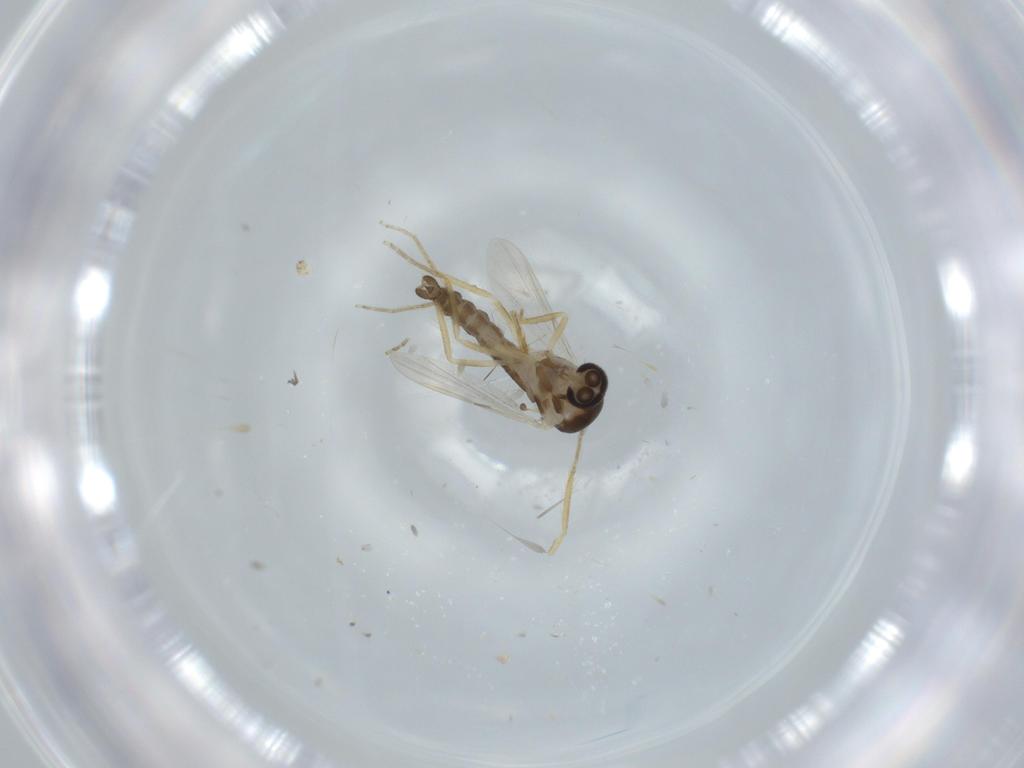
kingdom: Animalia
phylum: Arthropoda
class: Insecta
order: Diptera
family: Ceratopogonidae
